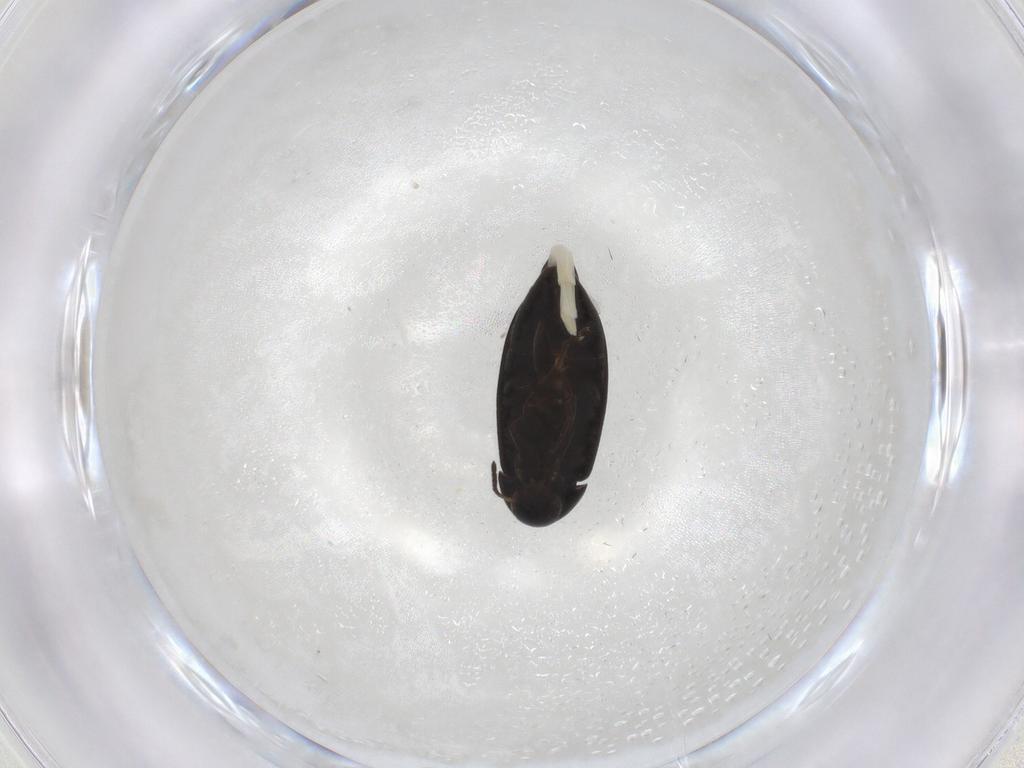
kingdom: Animalia
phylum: Arthropoda
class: Insecta
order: Coleoptera
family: Scraptiidae
